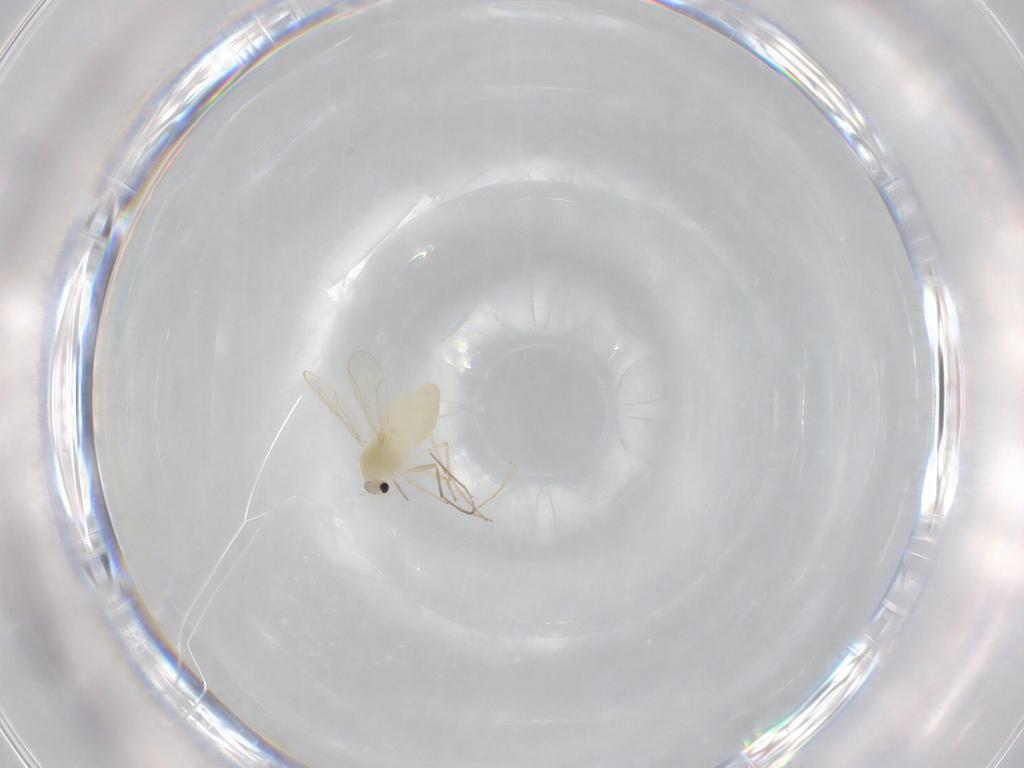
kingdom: Animalia
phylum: Arthropoda
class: Insecta
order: Diptera
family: Chironomidae
